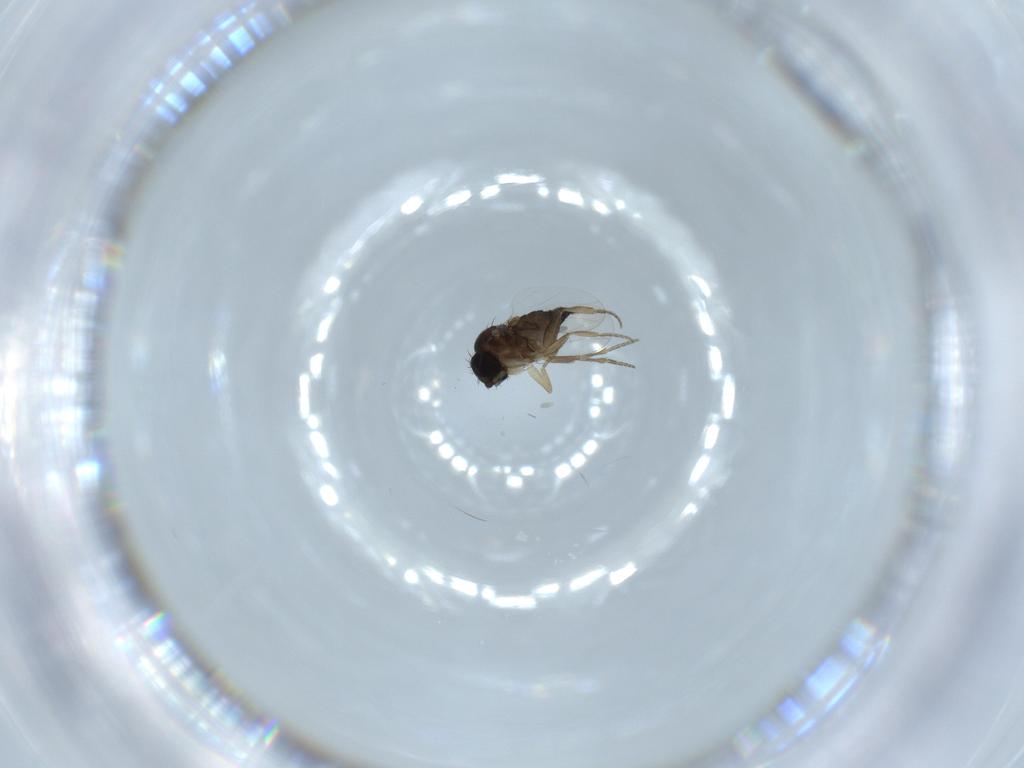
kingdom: Animalia
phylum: Arthropoda
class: Insecta
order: Diptera
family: Phoridae
